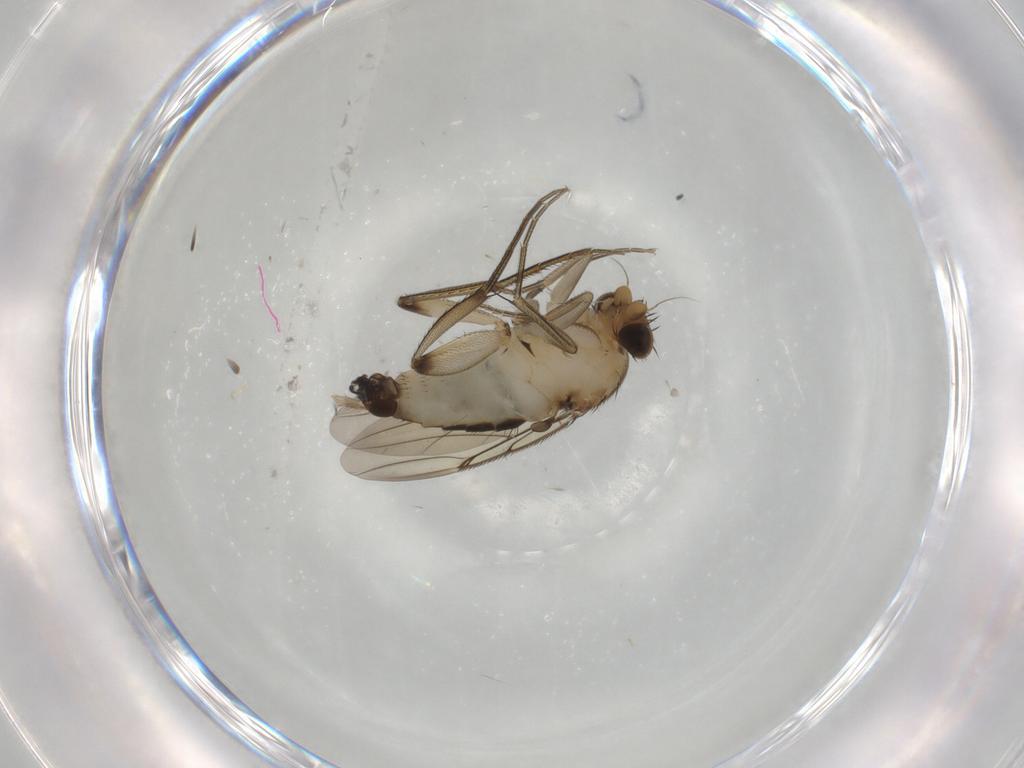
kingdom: Animalia
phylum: Arthropoda
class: Insecta
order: Diptera
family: Phoridae
